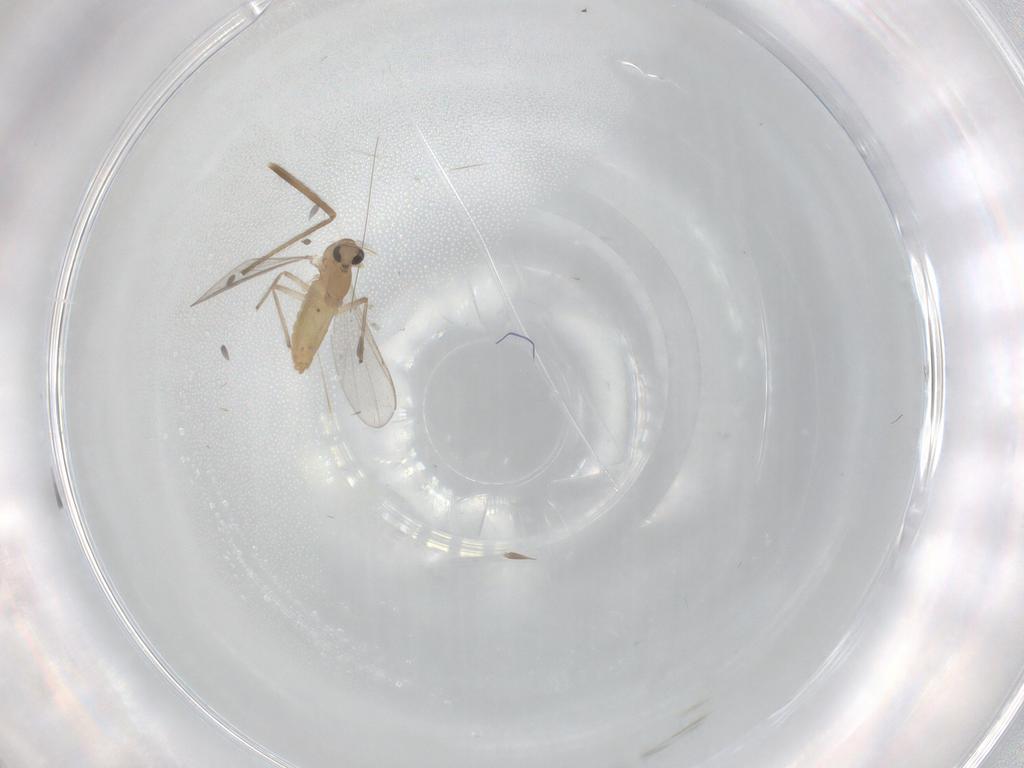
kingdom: Animalia
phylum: Arthropoda
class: Insecta
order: Diptera
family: Chironomidae
